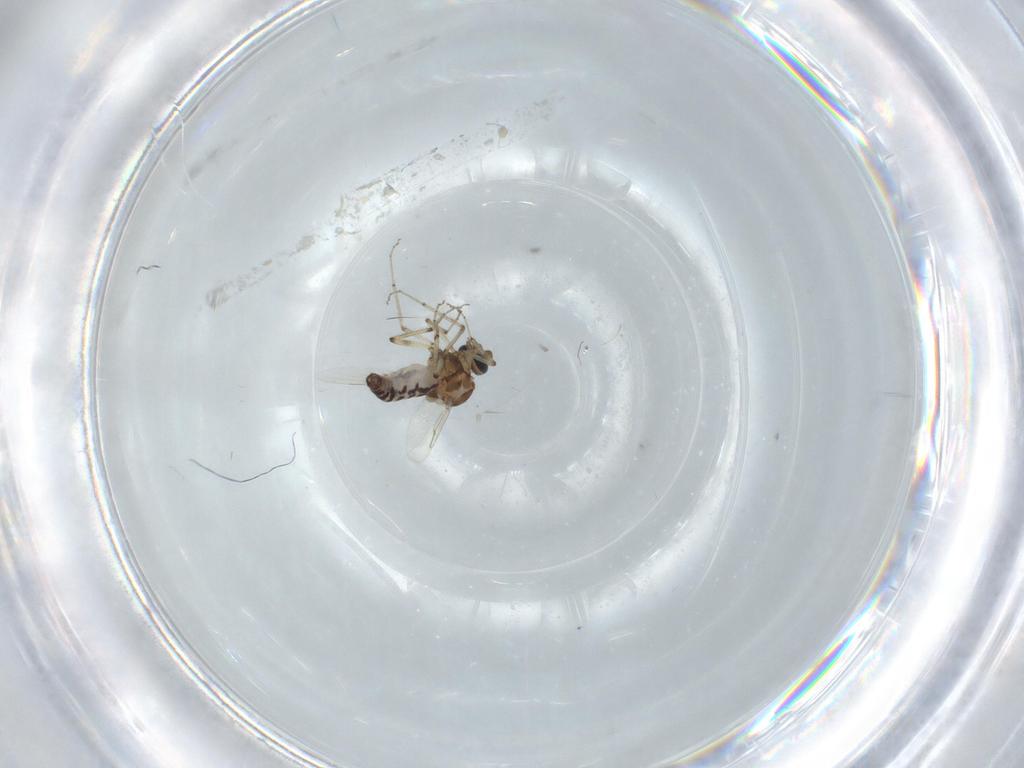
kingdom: Animalia
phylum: Arthropoda
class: Insecta
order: Diptera
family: Ceratopogonidae
